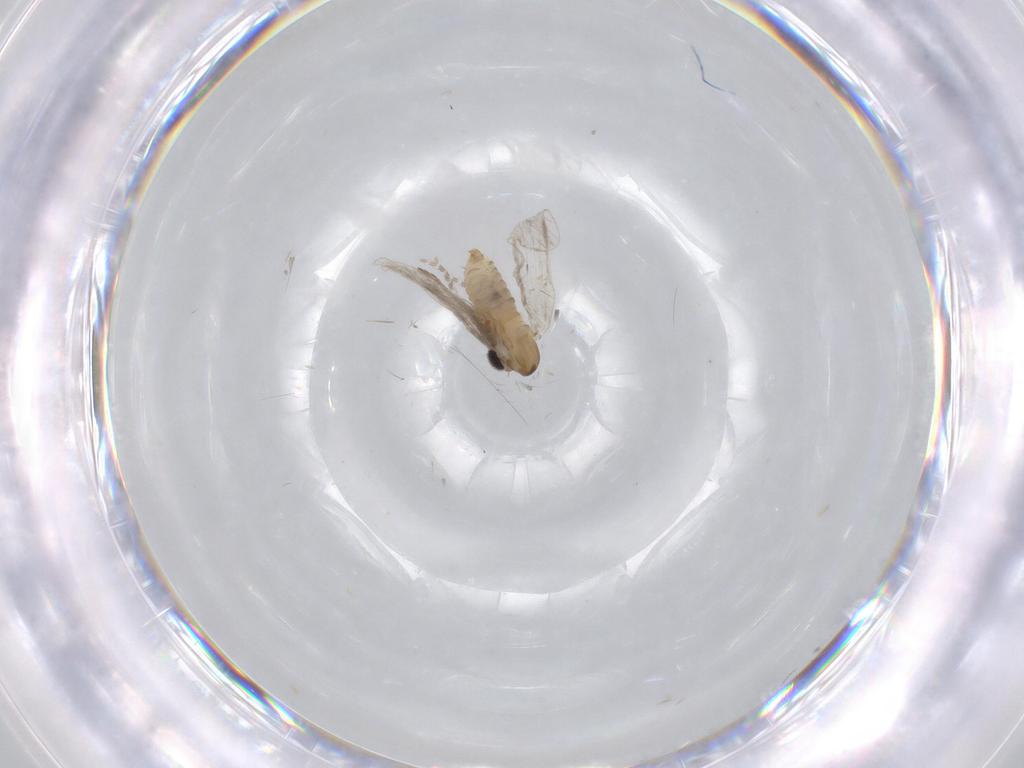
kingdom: Animalia
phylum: Arthropoda
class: Insecta
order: Diptera
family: Psychodidae
